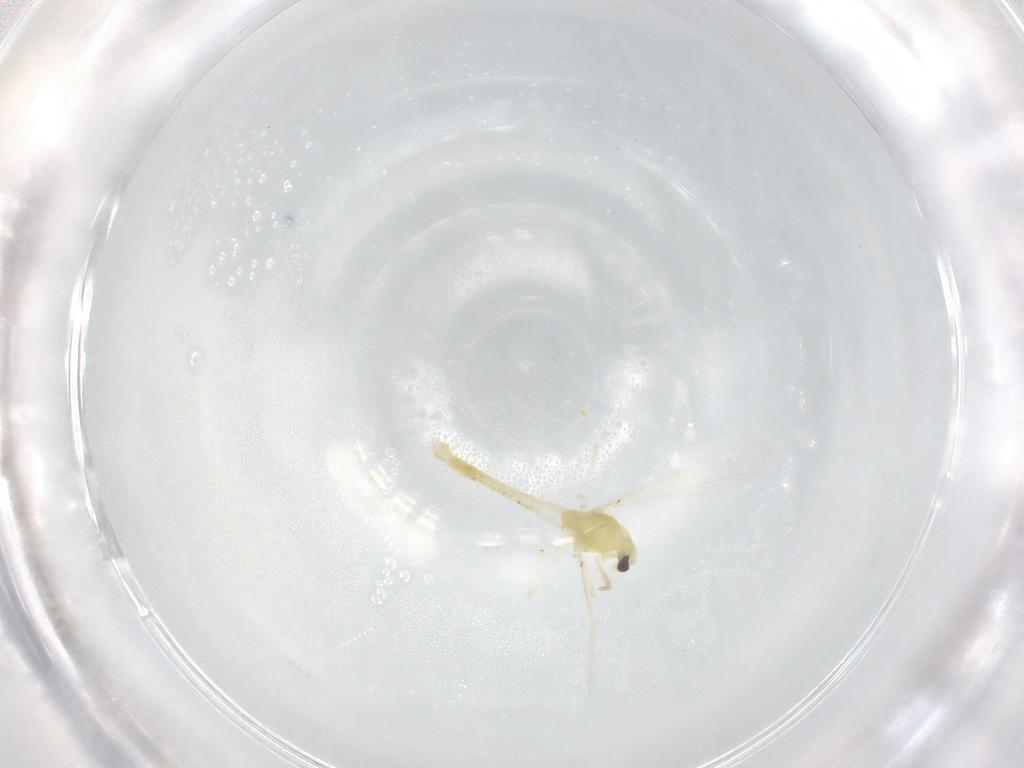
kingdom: Animalia
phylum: Arthropoda
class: Insecta
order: Diptera
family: Chironomidae
